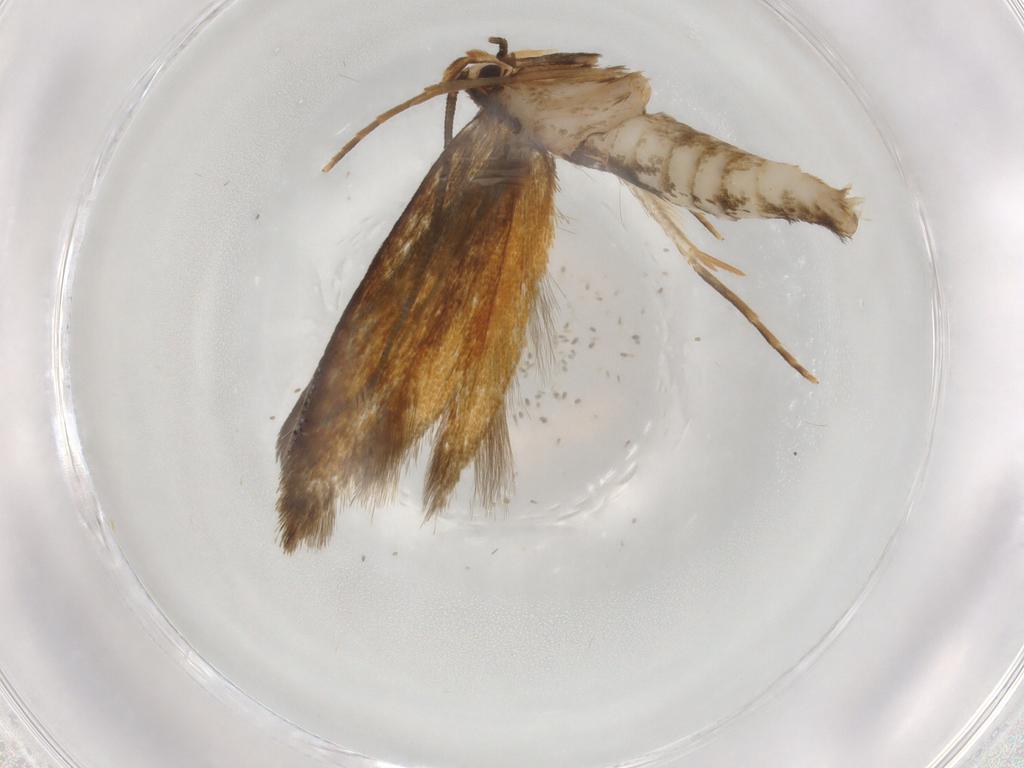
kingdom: Animalia
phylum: Arthropoda
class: Insecta
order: Lepidoptera
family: Tineidae
